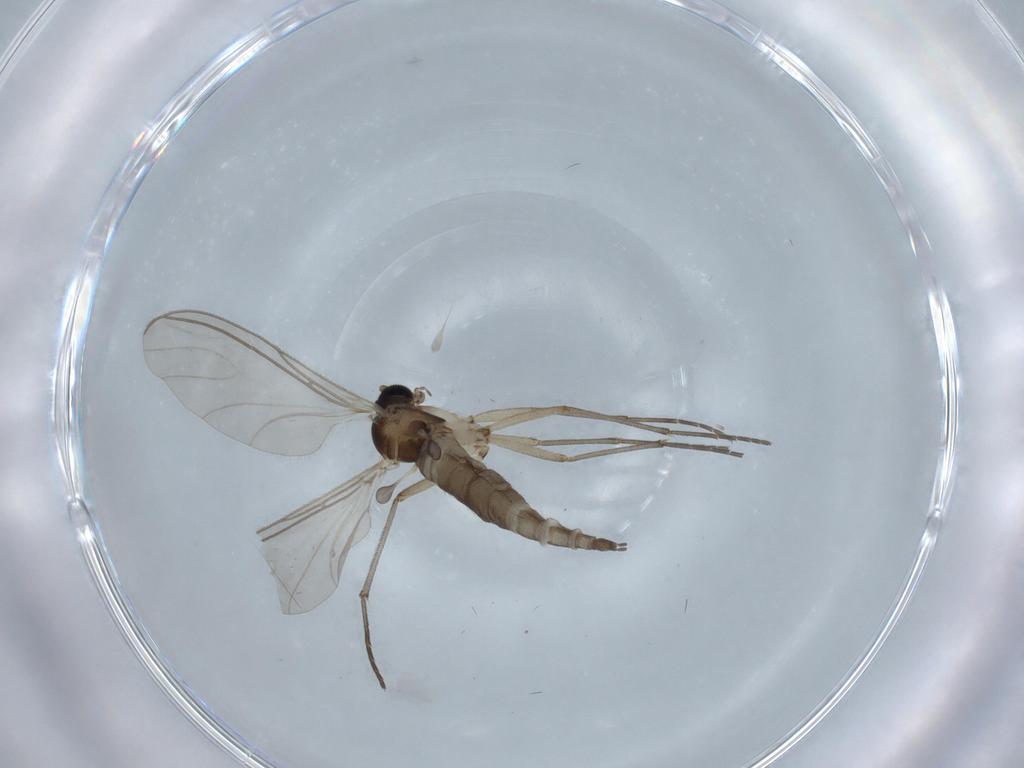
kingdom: Animalia
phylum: Arthropoda
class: Insecta
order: Diptera
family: Sciaridae
